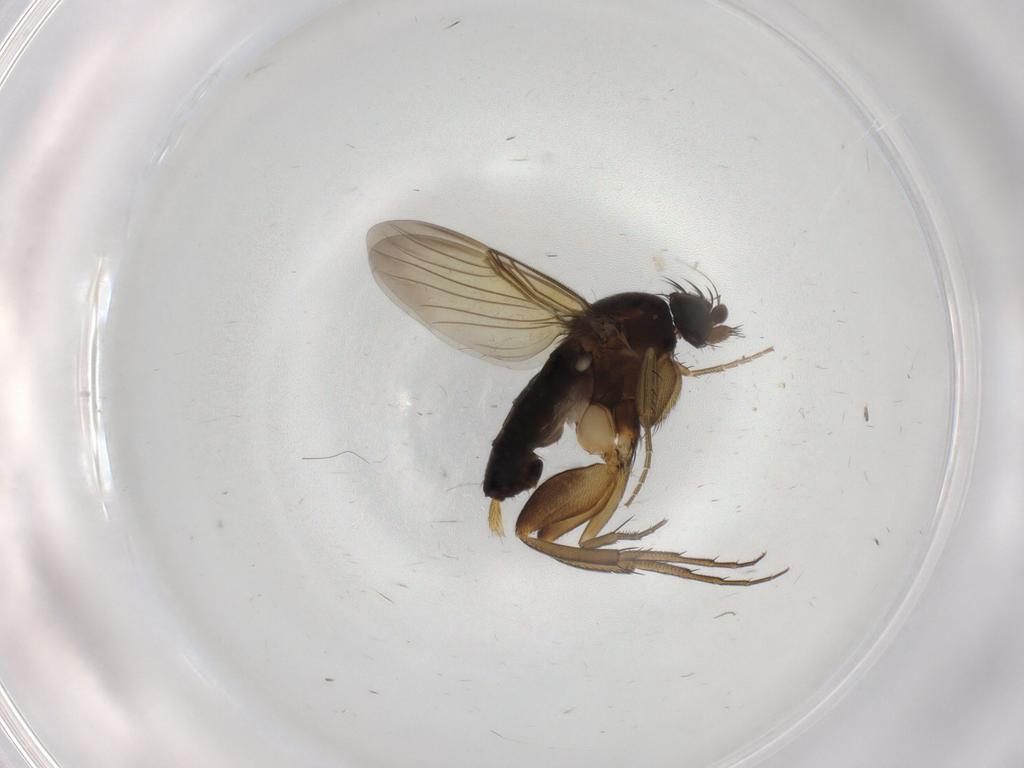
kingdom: Animalia
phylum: Arthropoda
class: Insecta
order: Diptera
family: Phoridae
